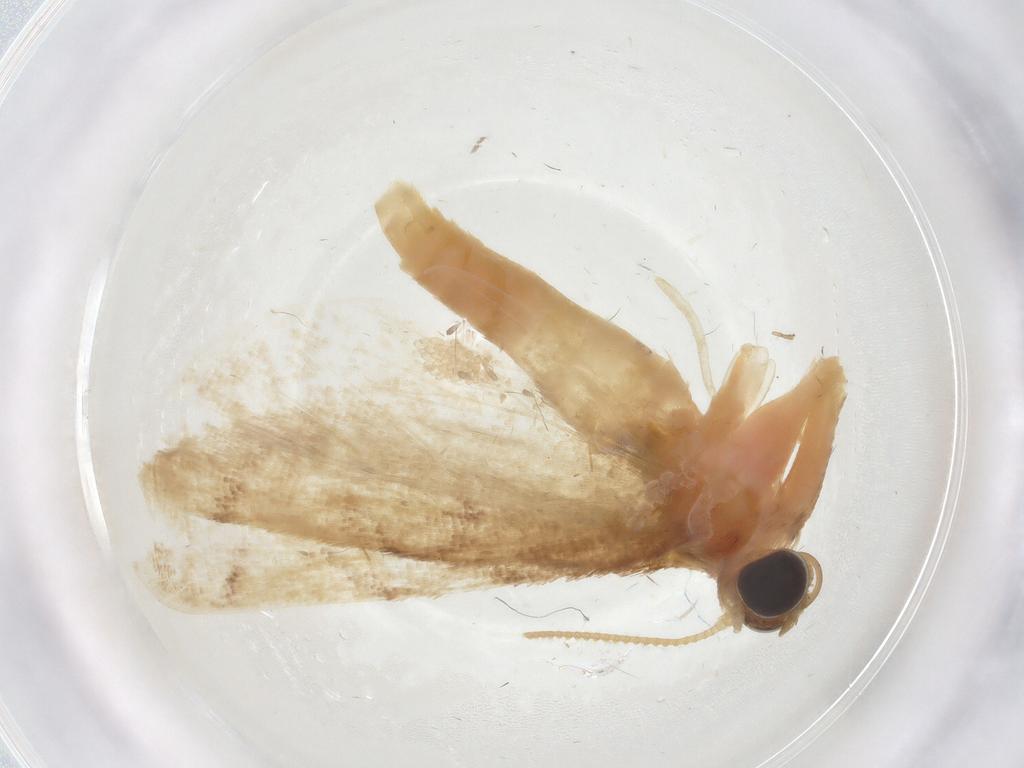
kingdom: Animalia
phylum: Arthropoda
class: Insecta
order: Lepidoptera
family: Geometridae
